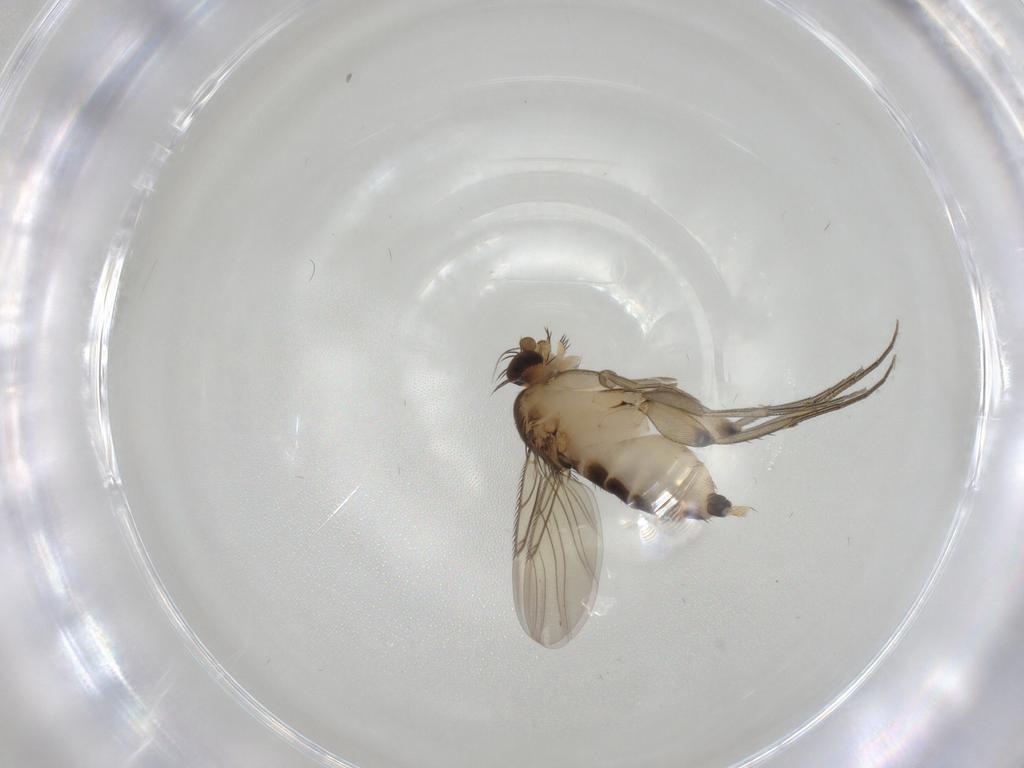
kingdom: Animalia
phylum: Arthropoda
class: Insecta
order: Diptera
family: Phoridae
